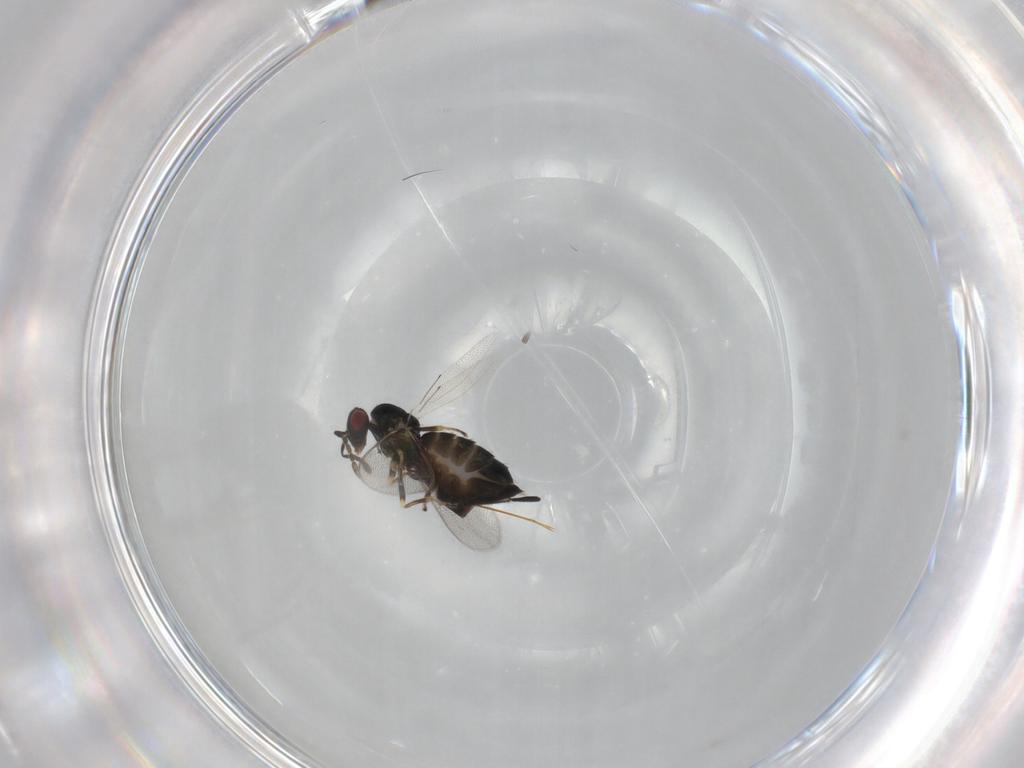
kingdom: Animalia
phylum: Arthropoda
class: Insecta
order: Hymenoptera
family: Eulophidae
